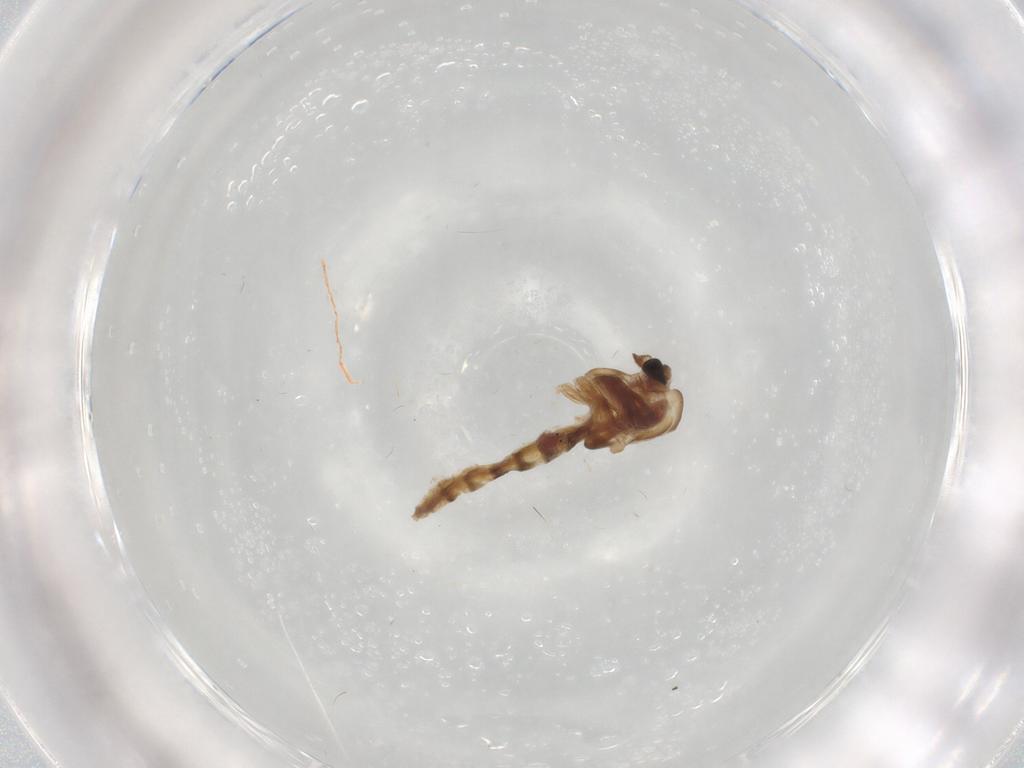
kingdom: Animalia
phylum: Arthropoda
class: Insecta
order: Diptera
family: Chironomidae
